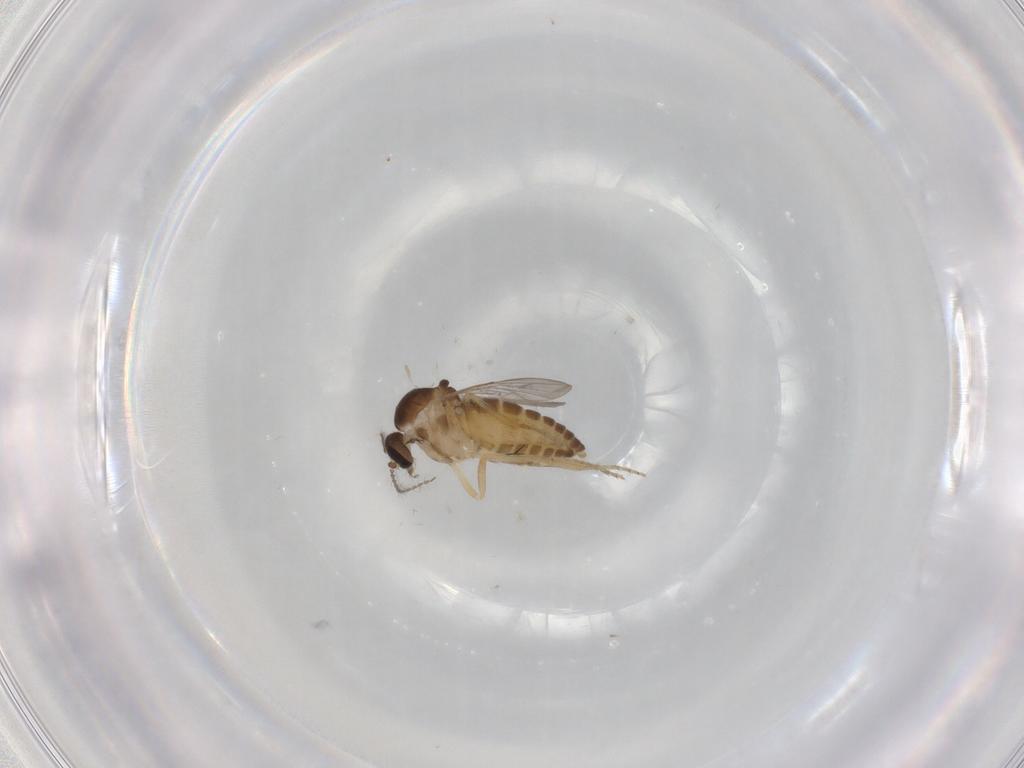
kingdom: Animalia
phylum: Arthropoda
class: Insecta
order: Diptera
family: Ceratopogonidae
